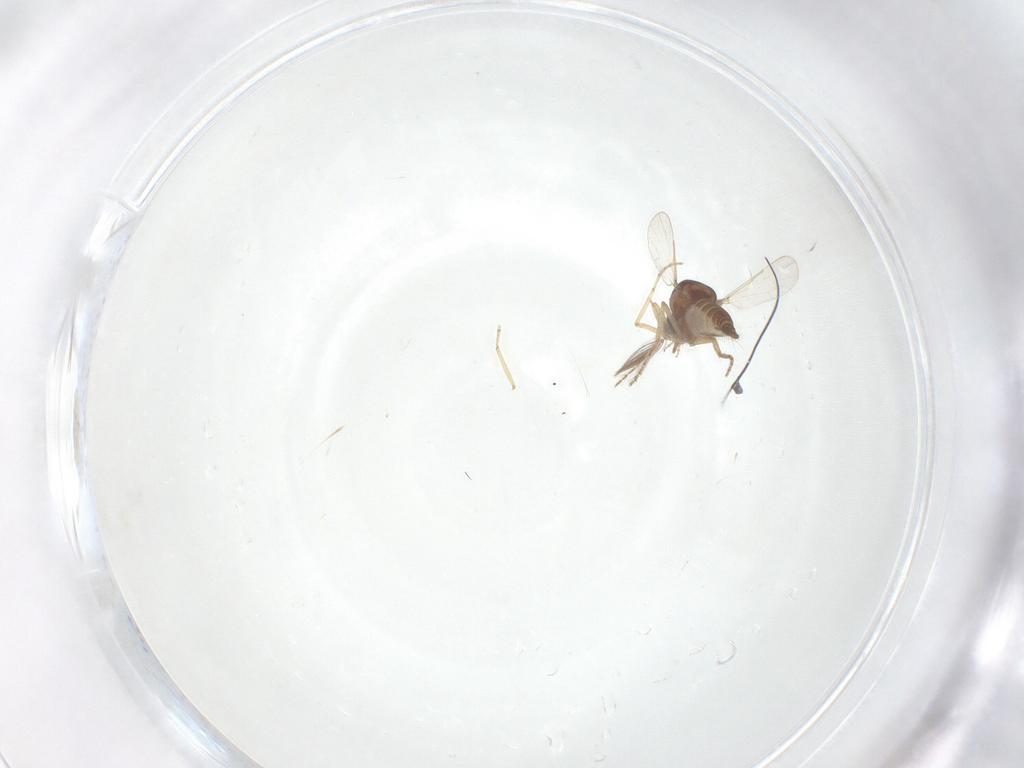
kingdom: Animalia
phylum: Arthropoda
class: Insecta
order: Diptera
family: Ceratopogonidae
